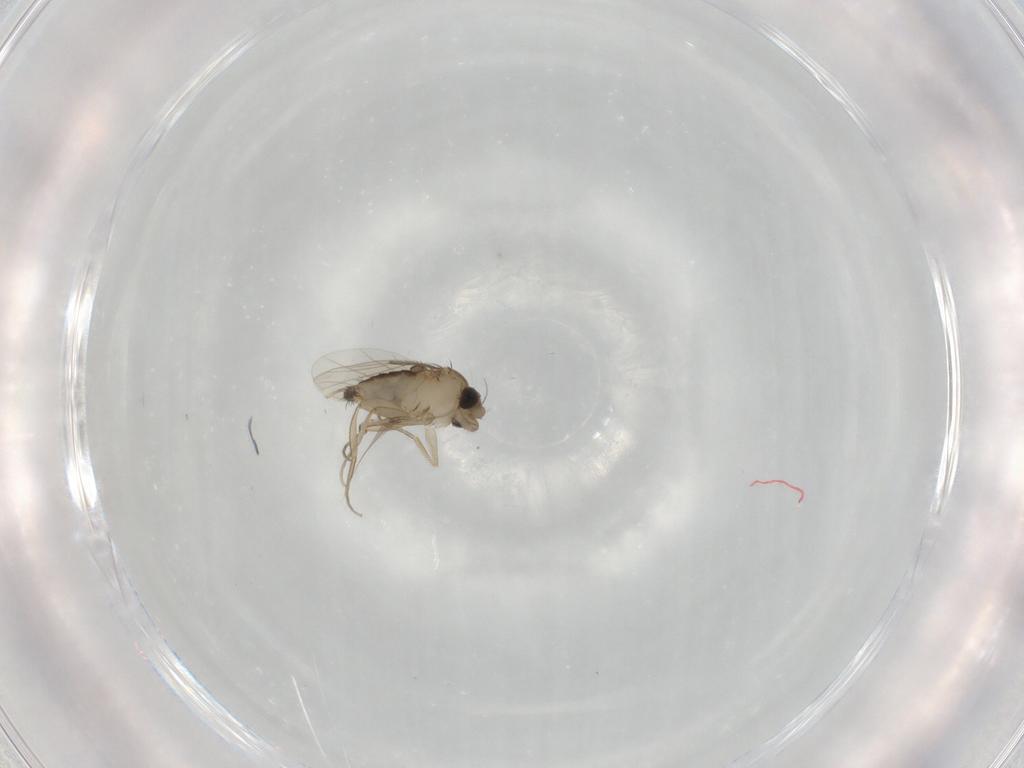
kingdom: Animalia
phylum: Arthropoda
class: Insecta
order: Diptera
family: Phoridae
